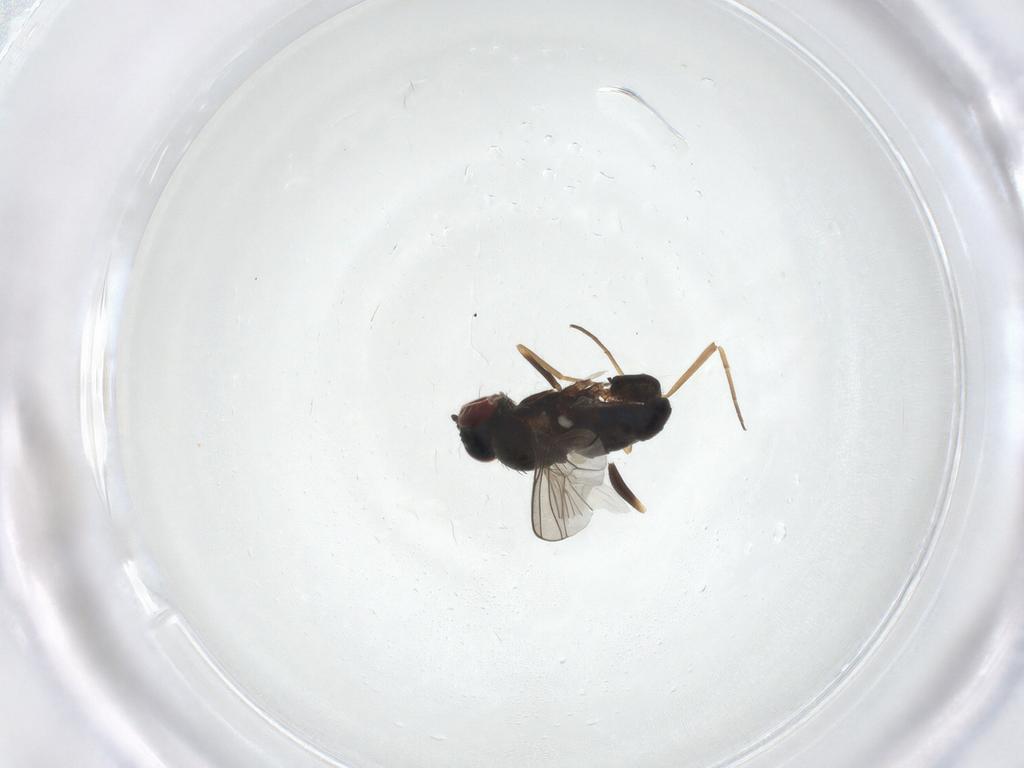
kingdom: Animalia
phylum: Arthropoda
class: Insecta
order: Diptera
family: Dolichopodidae
